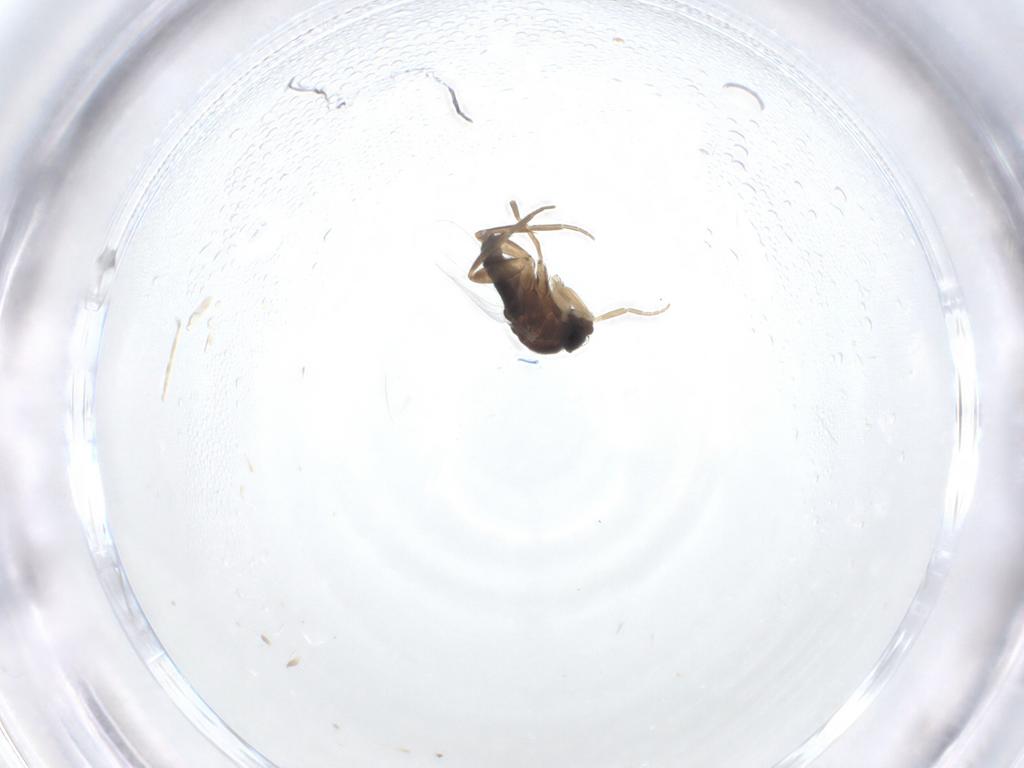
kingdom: Animalia
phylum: Arthropoda
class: Insecta
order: Diptera
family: Phoridae
